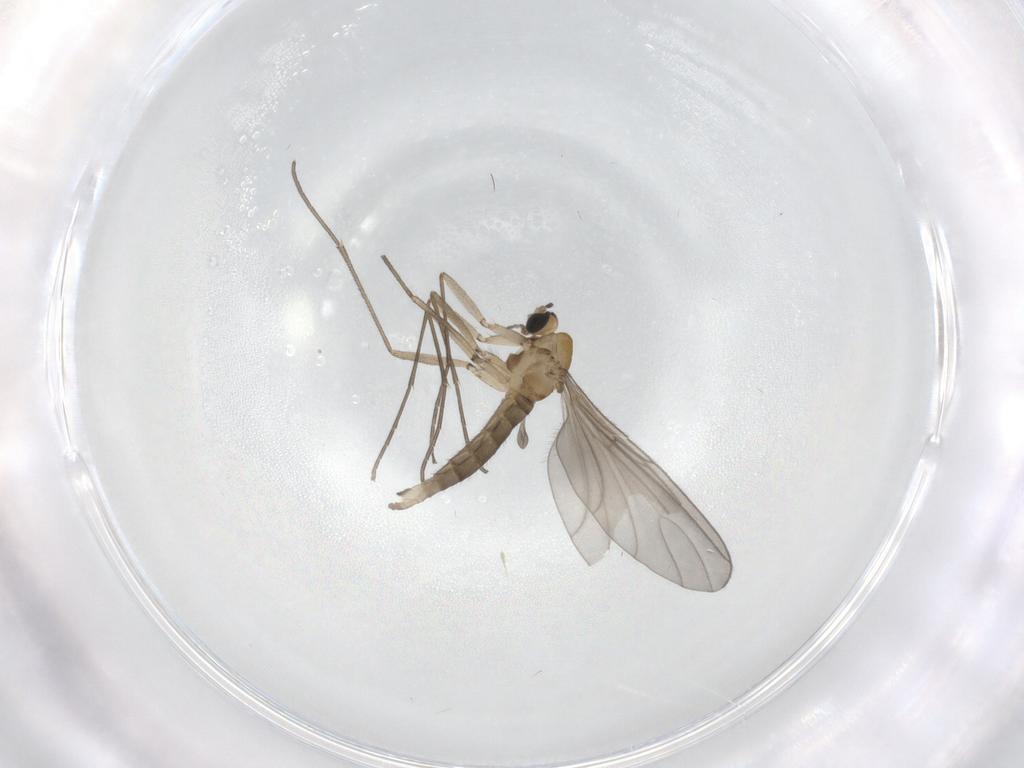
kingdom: Animalia
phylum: Arthropoda
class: Insecta
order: Diptera
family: Sciaridae
